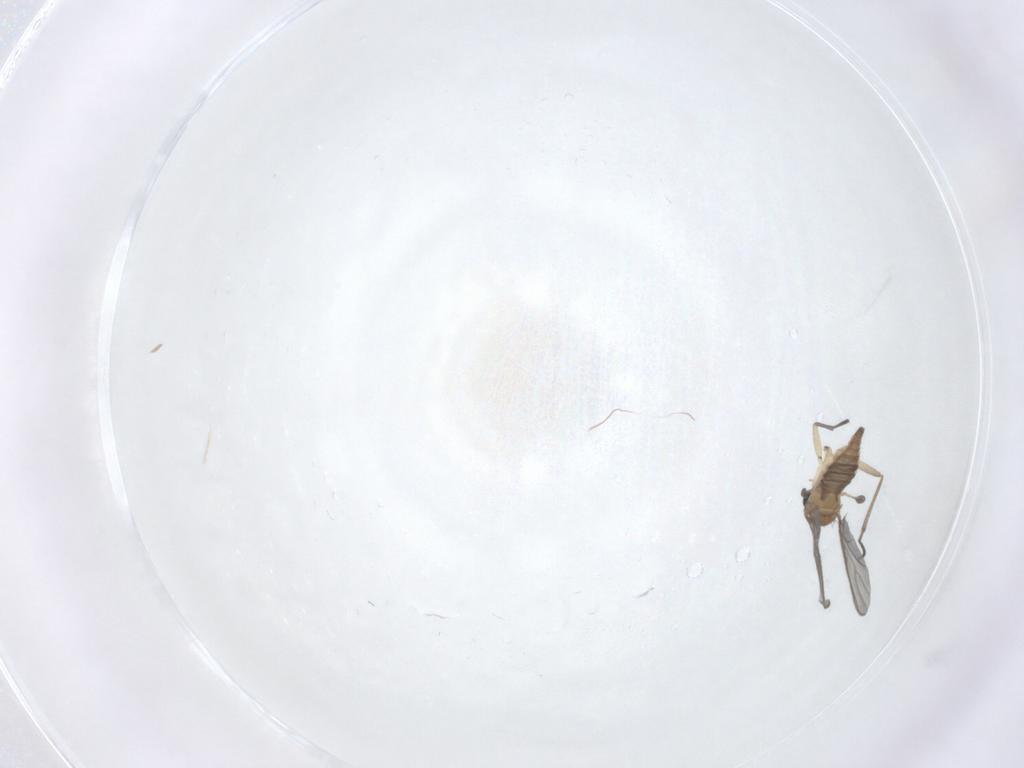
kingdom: Animalia
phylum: Arthropoda
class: Insecta
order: Diptera
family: Sciaridae
